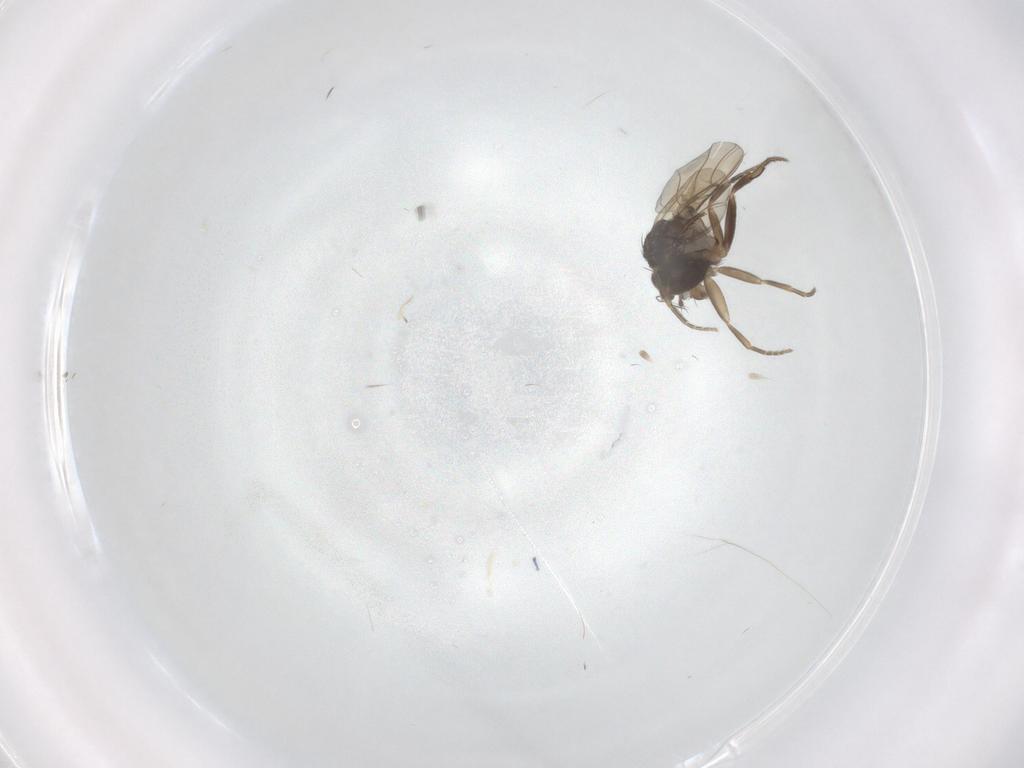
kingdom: Animalia
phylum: Arthropoda
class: Insecta
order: Diptera
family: Phoridae
